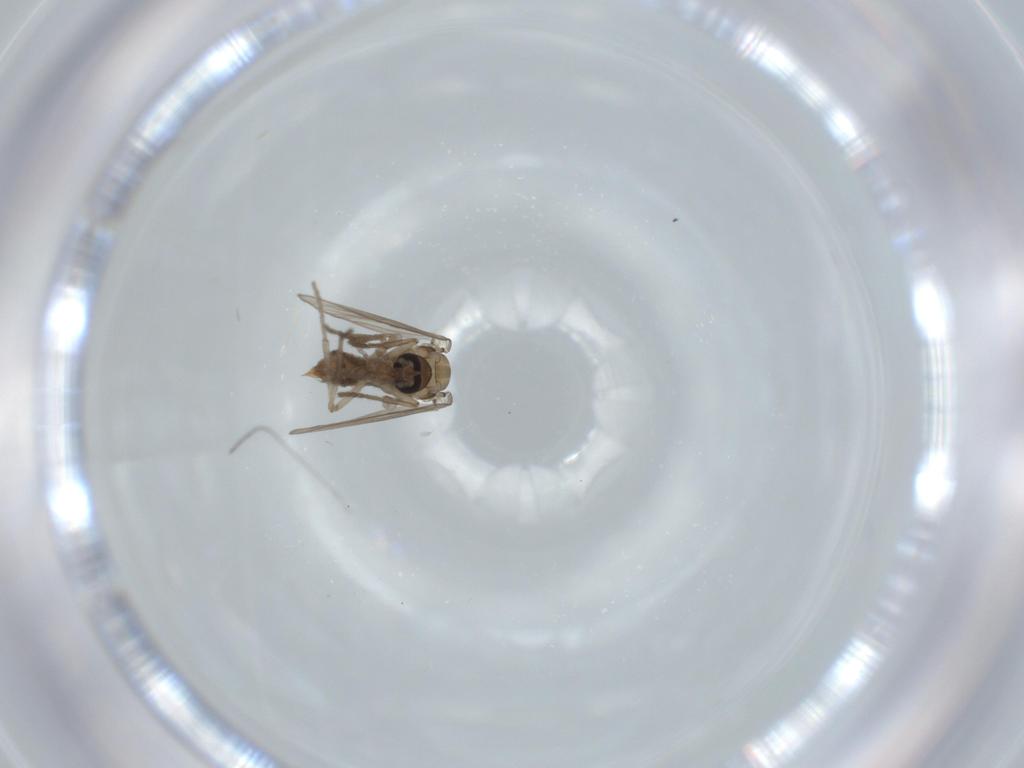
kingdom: Animalia
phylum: Arthropoda
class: Insecta
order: Diptera
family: Psychodidae
